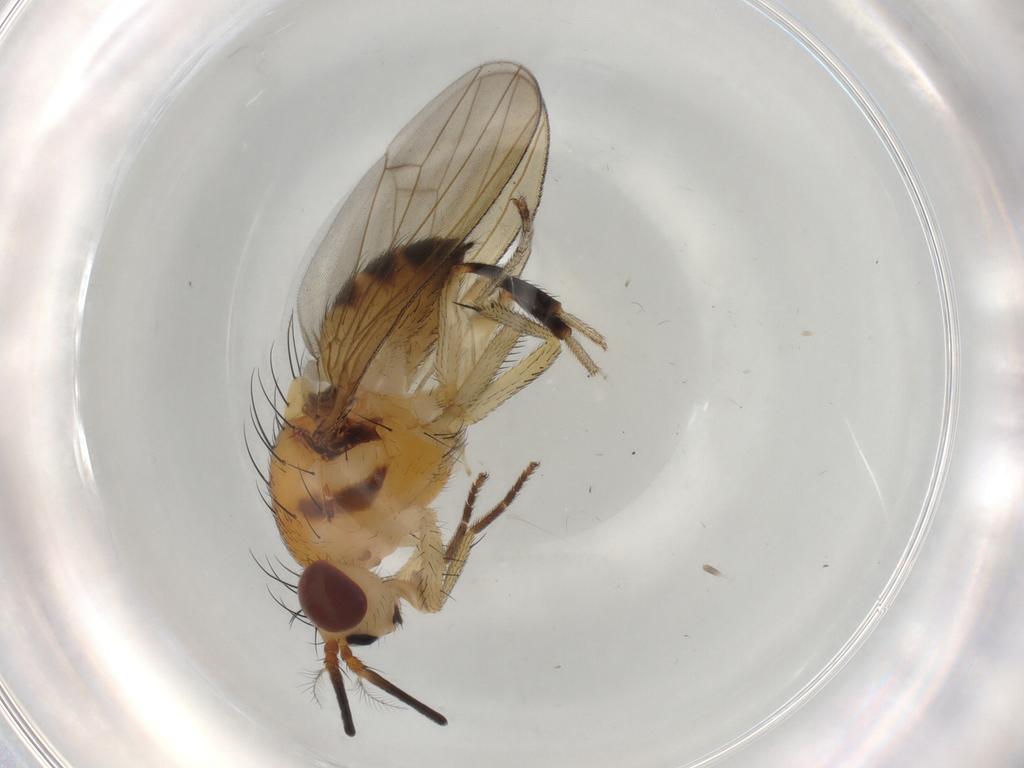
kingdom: Animalia
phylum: Arthropoda
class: Insecta
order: Diptera
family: Lauxaniidae
